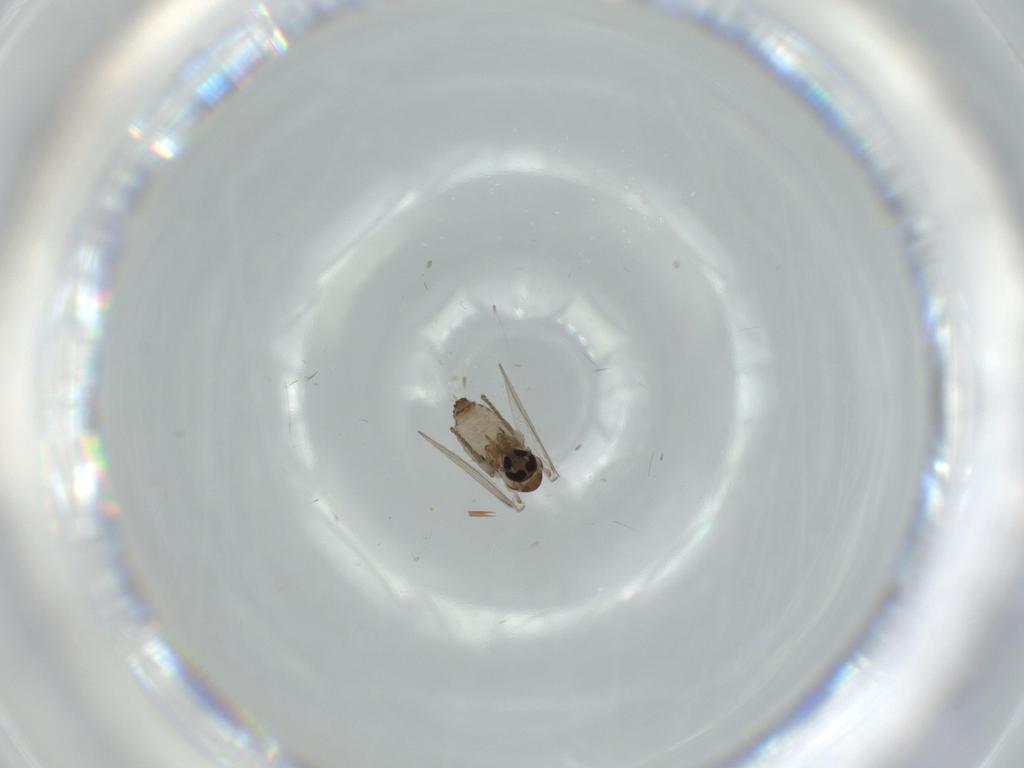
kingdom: Animalia
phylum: Arthropoda
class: Insecta
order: Diptera
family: Psychodidae
